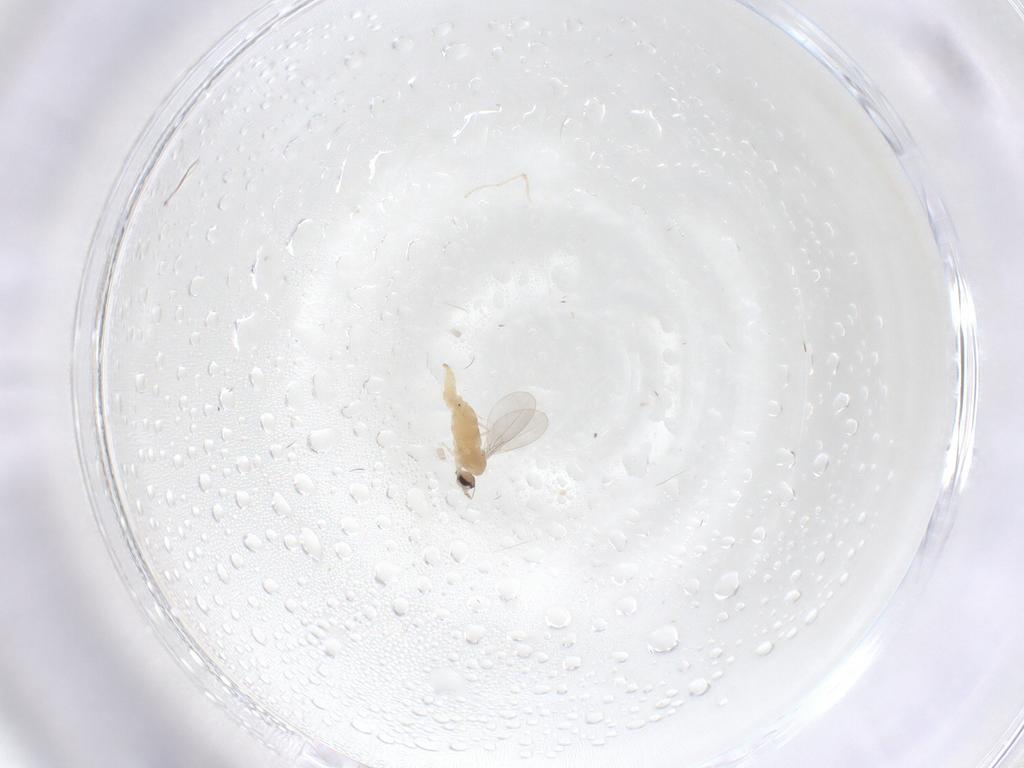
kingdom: Animalia
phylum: Arthropoda
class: Insecta
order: Diptera
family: Cecidomyiidae
